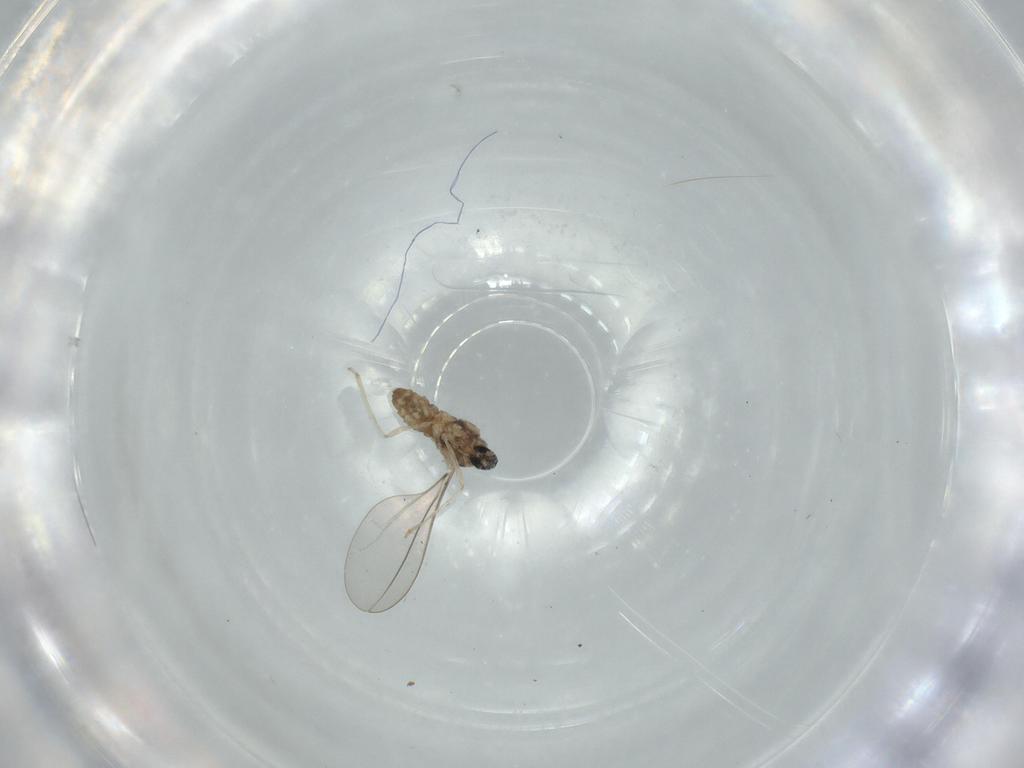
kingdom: Animalia
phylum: Arthropoda
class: Insecta
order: Diptera
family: Cecidomyiidae
